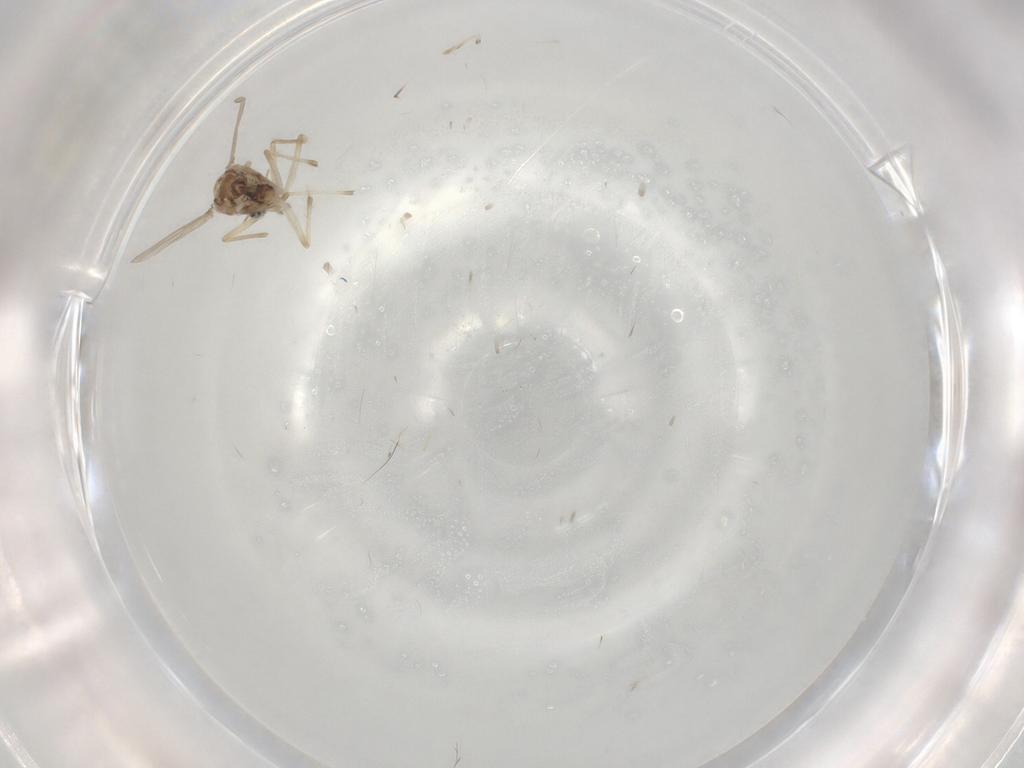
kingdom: Animalia
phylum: Arthropoda
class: Insecta
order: Diptera
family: Chironomidae
